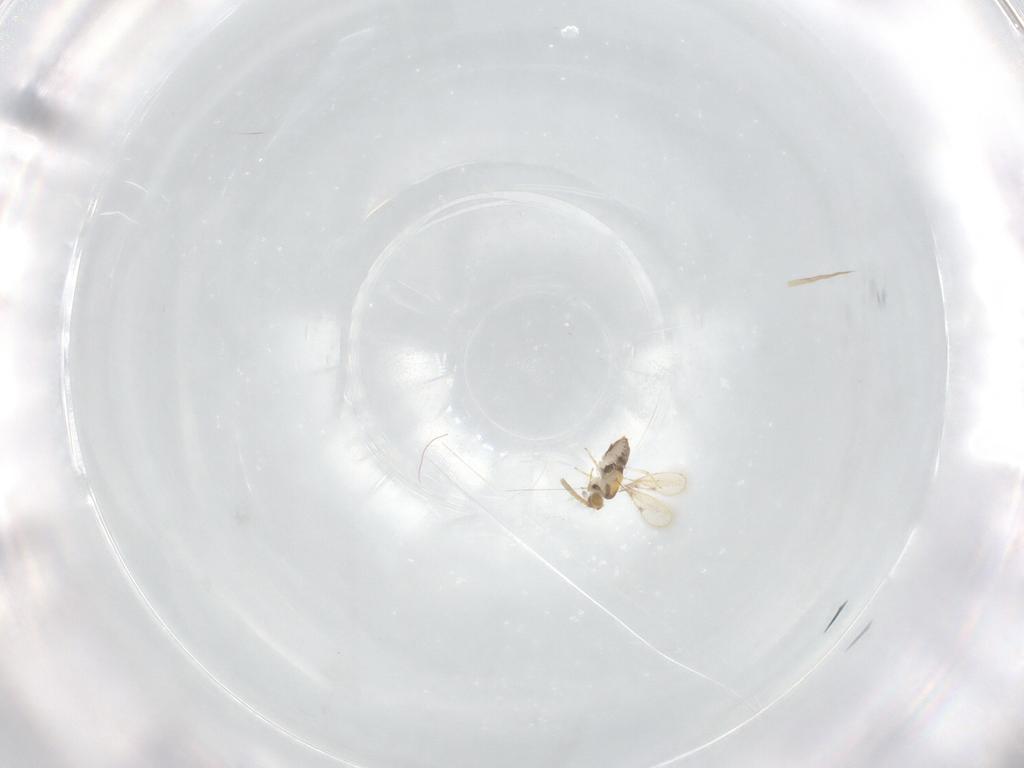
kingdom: Animalia
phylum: Arthropoda
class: Insecta
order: Hymenoptera
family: Aphelinidae
